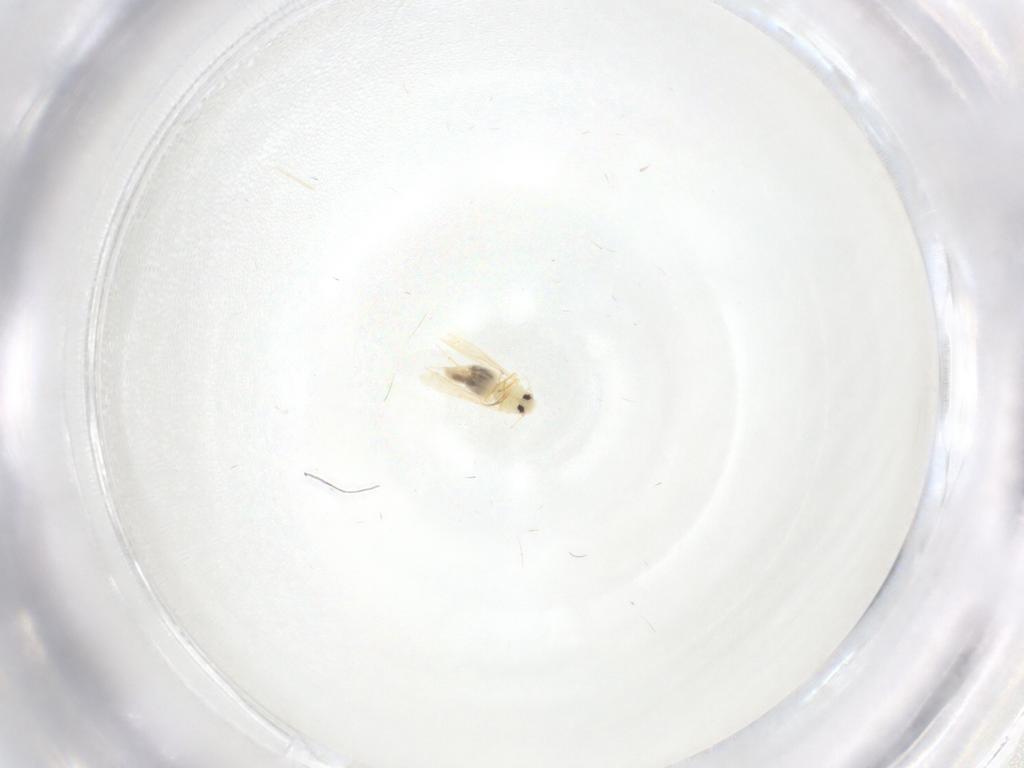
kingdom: Animalia
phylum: Arthropoda
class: Insecta
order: Hemiptera
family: Aleyrodidae
